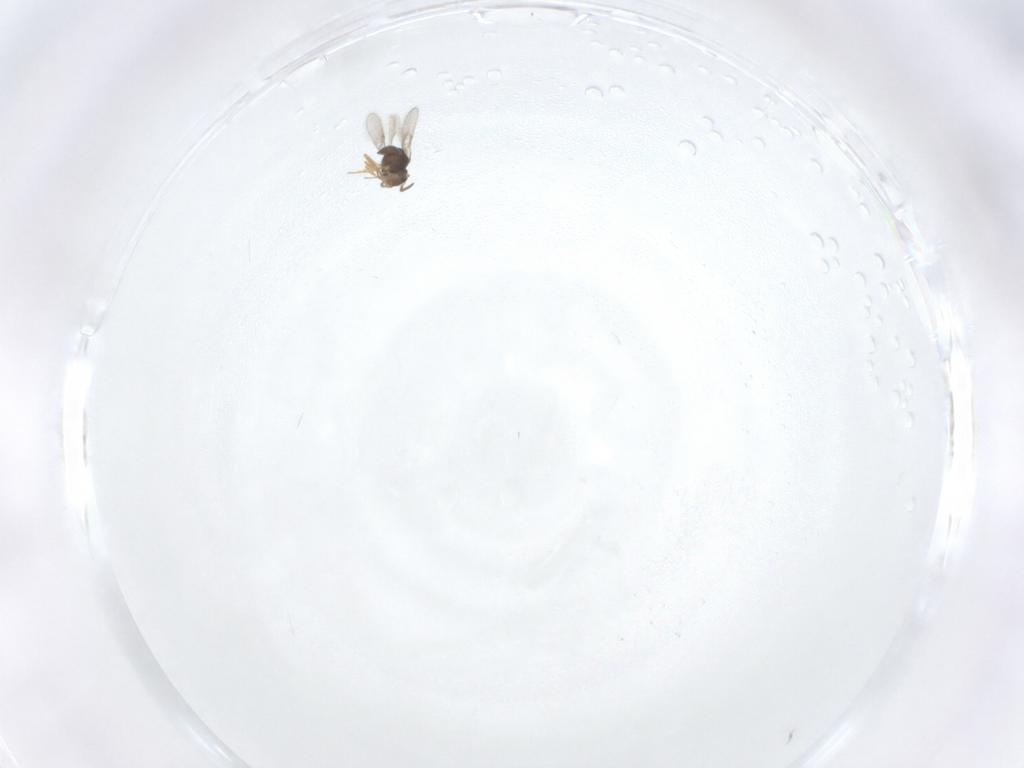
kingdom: Animalia
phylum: Arthropoda
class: Insecta
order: Hymenoptera
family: Scelionidae
